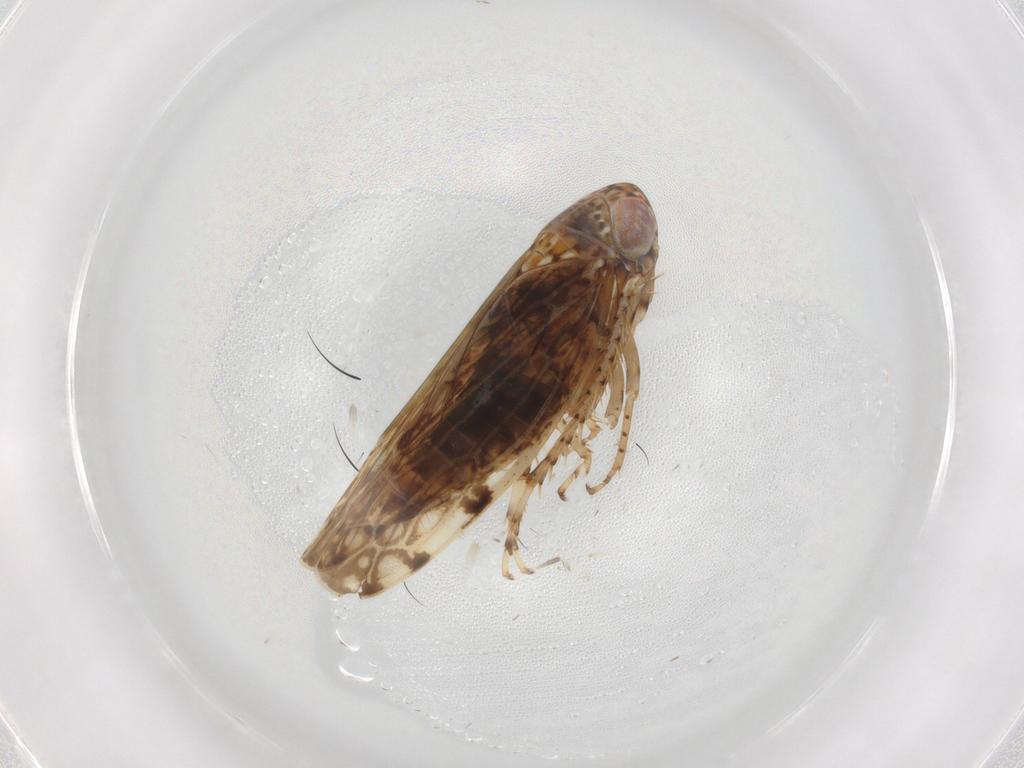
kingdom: Animalia
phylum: Arthropoda
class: Insecta
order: Hemiptera
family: Cicadellidae
